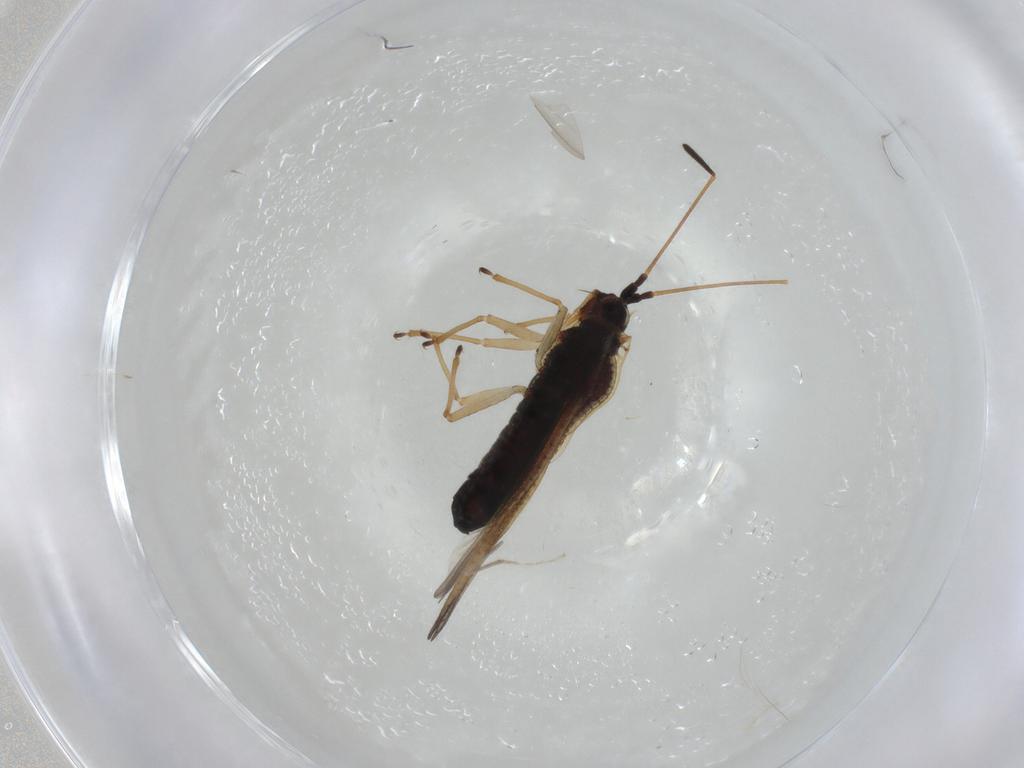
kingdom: Animalia
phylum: Arthropoda
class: Insecta
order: Hemiptera
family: Tingidae
